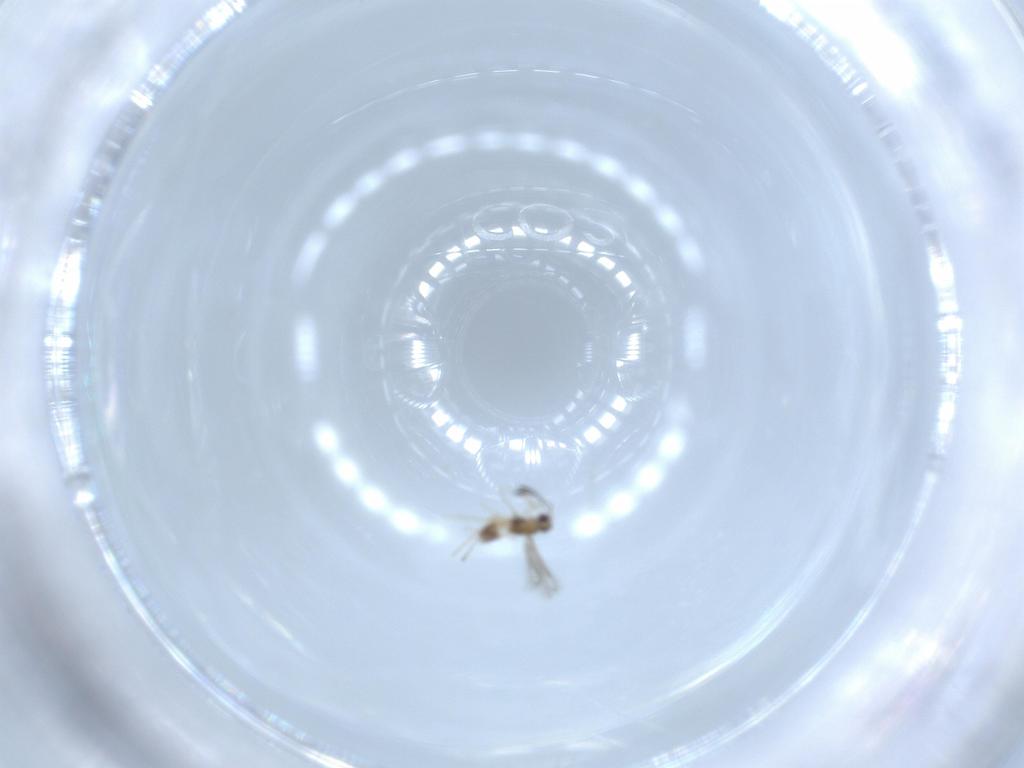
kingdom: Animalia
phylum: Arthropoda
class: Insecta
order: Hymenoptera
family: Mymaridae
